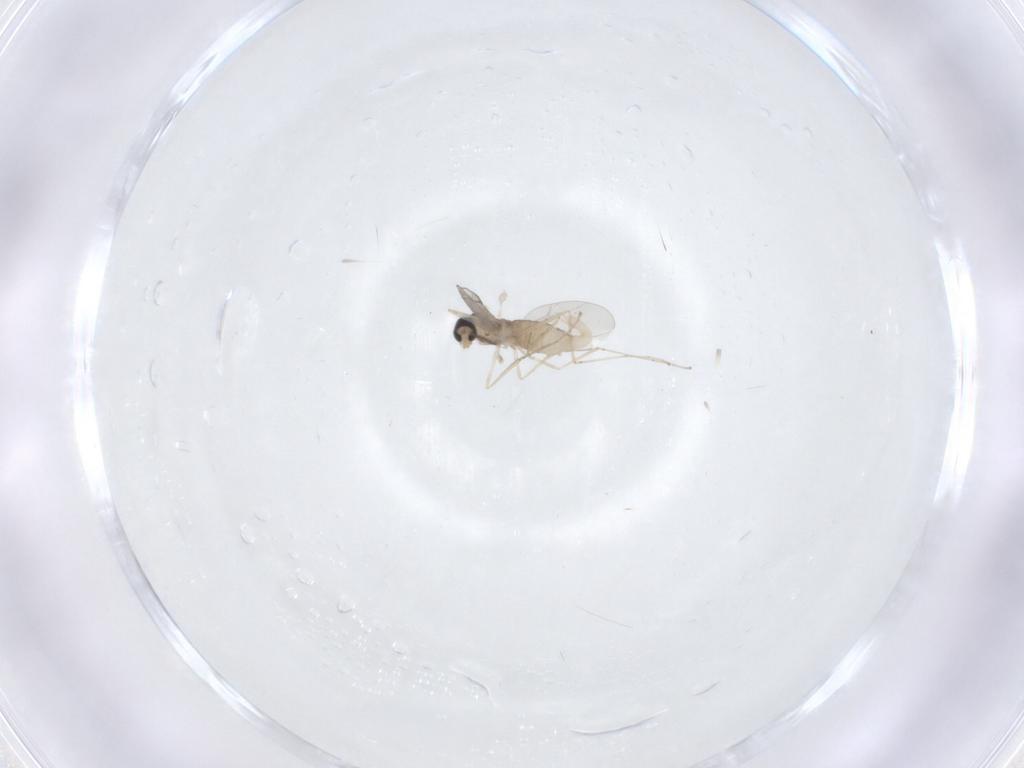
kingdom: Animalia
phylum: Arthropoda
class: Insecta
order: Diptera
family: Cecidomyiidae
